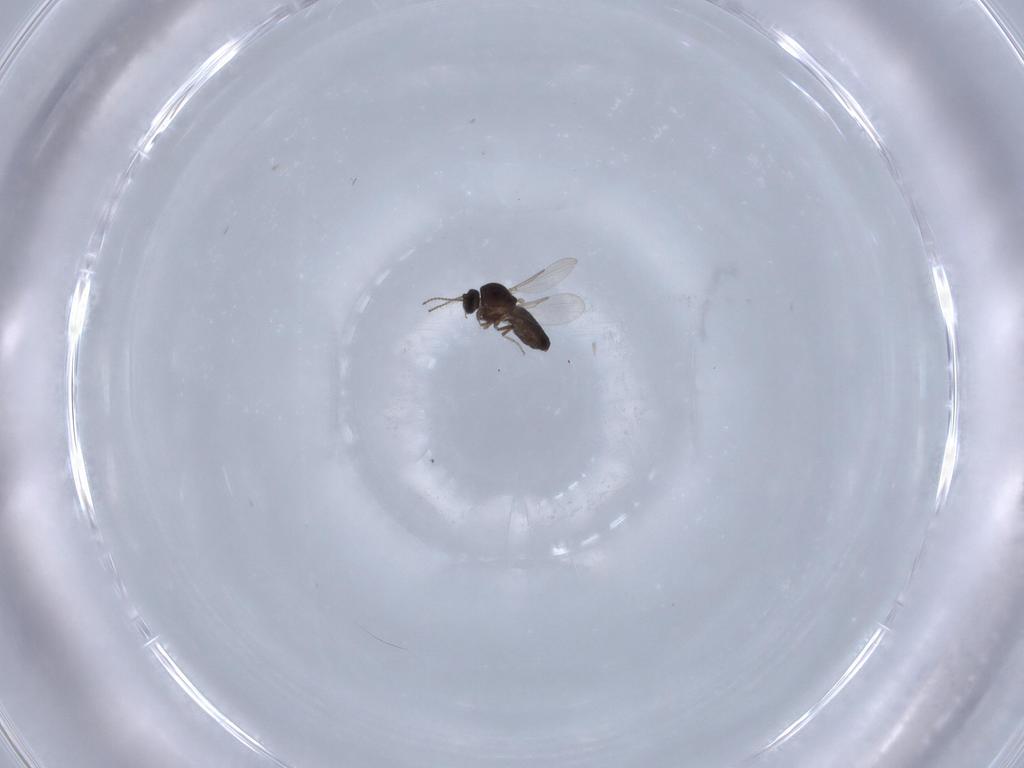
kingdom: Animalia
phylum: Arthropoda
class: Insecta
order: Diptera
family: Ceratopogonidae
